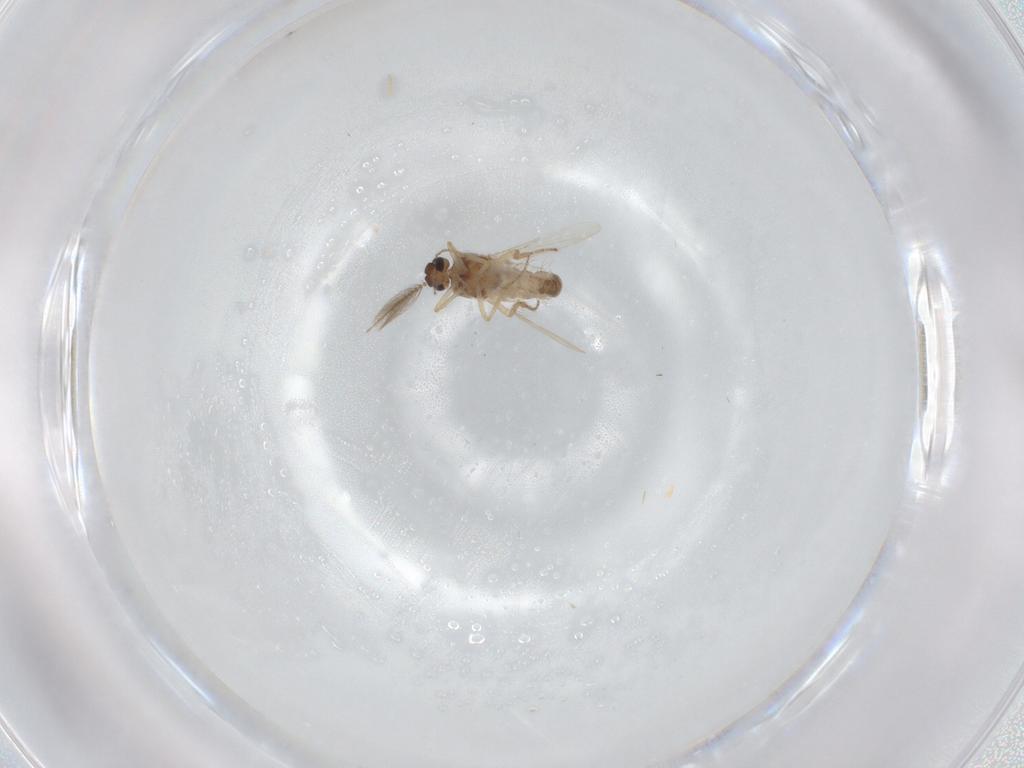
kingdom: Animalia
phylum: Arthropoda
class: Insecta
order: Diptera
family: Ceratopogonidae
